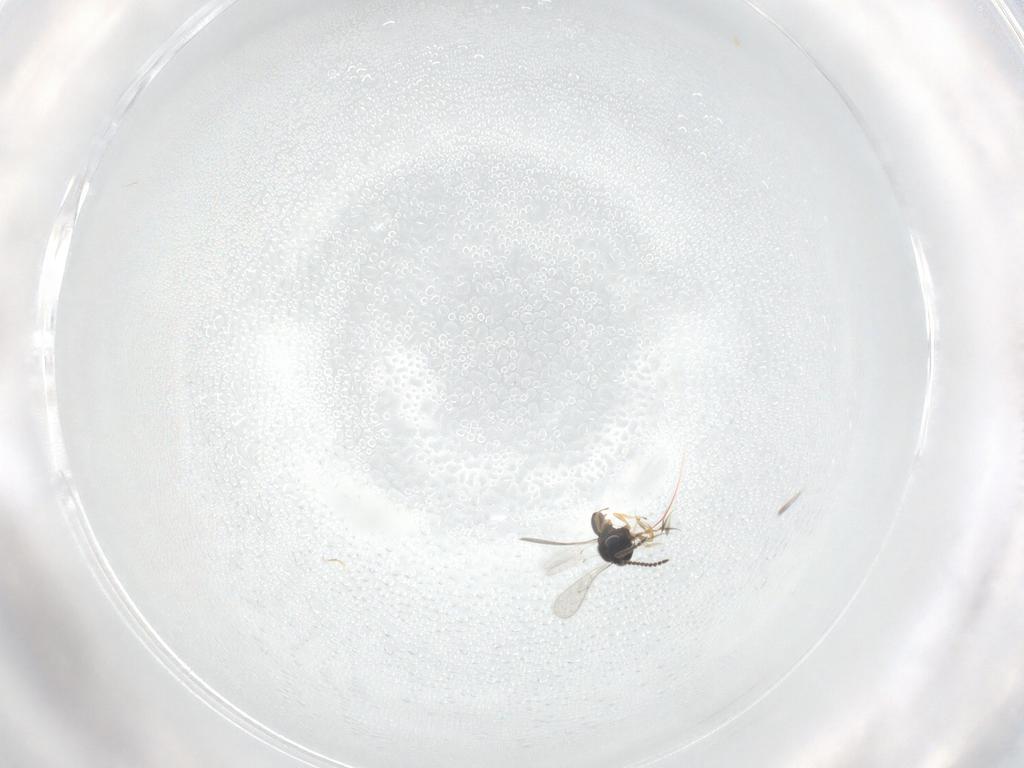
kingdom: Animalia
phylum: Arthropoda
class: Insecta
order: Hymenoptera
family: Scelionidae
